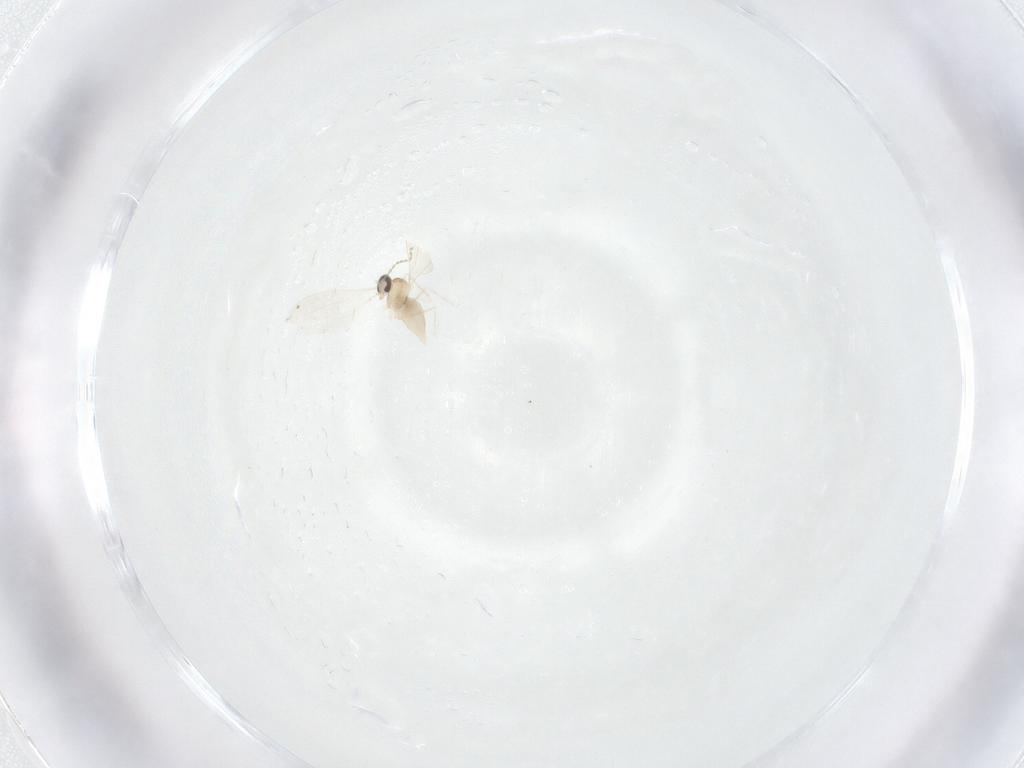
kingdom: Animalia
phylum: Arthropoda
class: Insecta
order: Diptera
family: Cecidomyiidae
